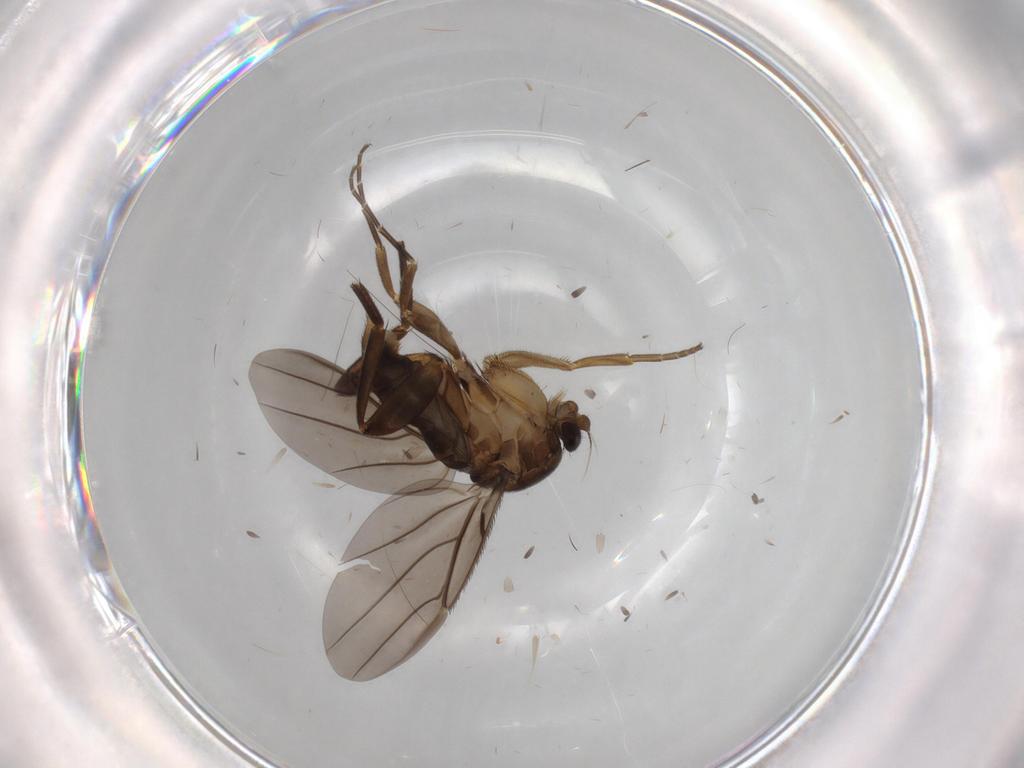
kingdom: Animalia
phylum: Arthropoda
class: Insecta
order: Diptera
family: Phoridae
